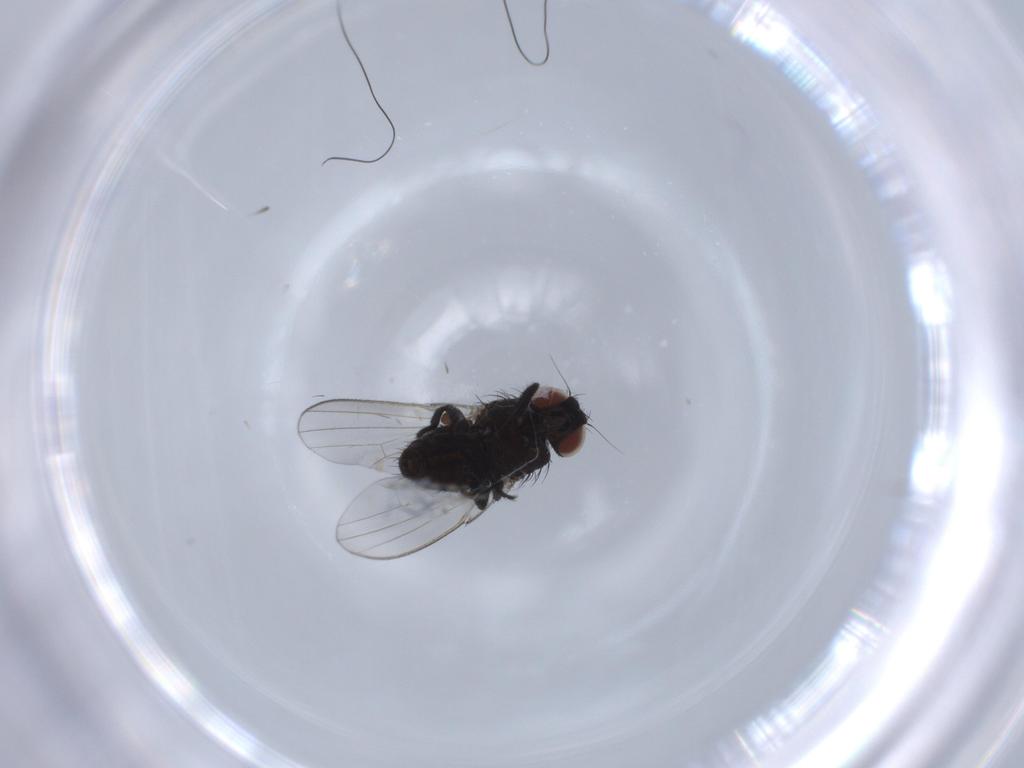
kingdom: Animalia
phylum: Arthropoda
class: Insecta
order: Diptera
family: Milichiidae
